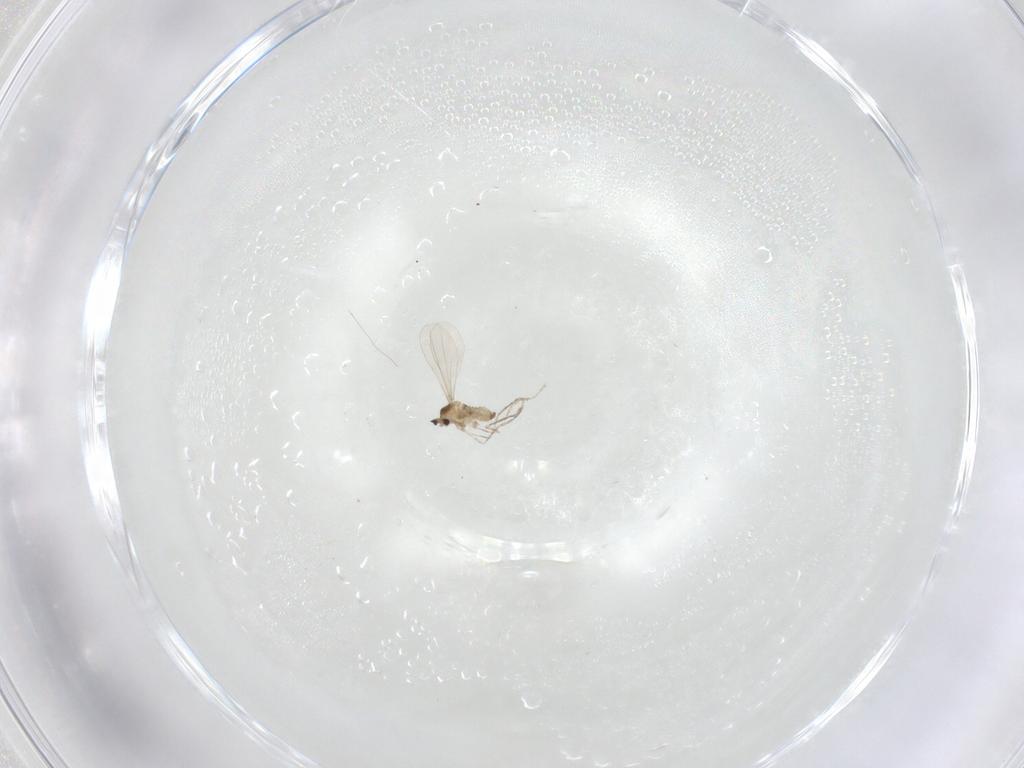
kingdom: Animalia
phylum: Arthropoda
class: Insecta
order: Diptera
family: Cecidomyiidae
